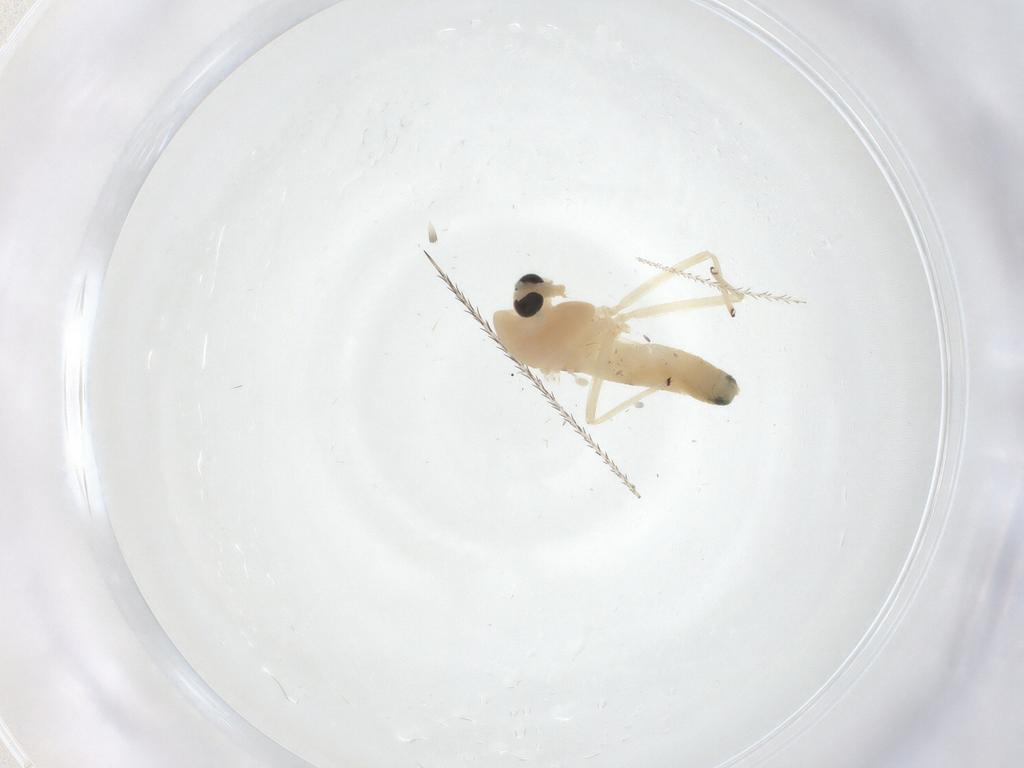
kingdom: Animalia
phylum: Arthropoda
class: Insecta
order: Diptera
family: Chironomidae
